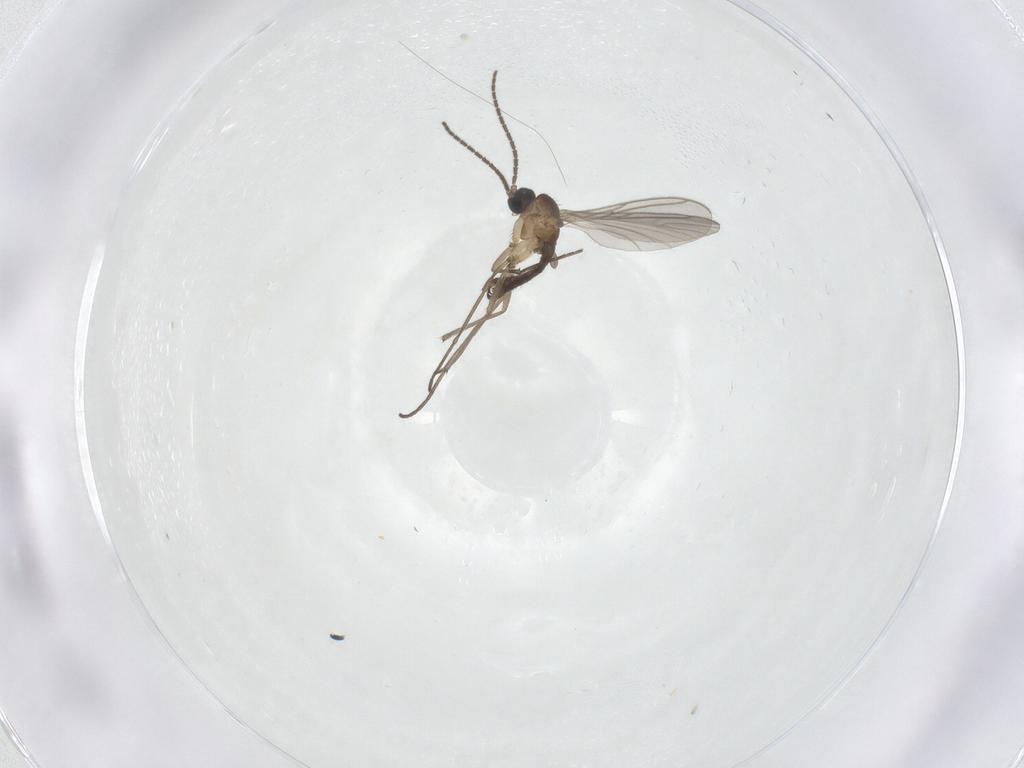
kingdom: Animalia
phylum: Arthropoda
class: Insecta
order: Diptera
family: Sciaridae
